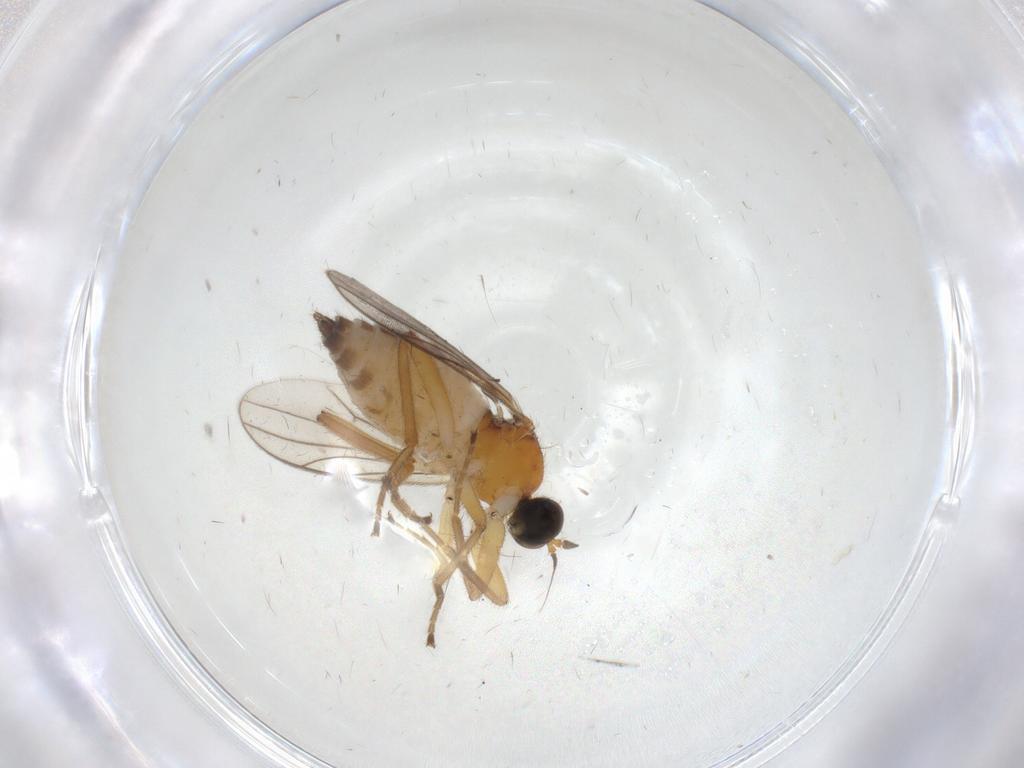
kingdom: Animalia
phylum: Arthropoda
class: Insecta
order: Diptera
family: Hybotidae
